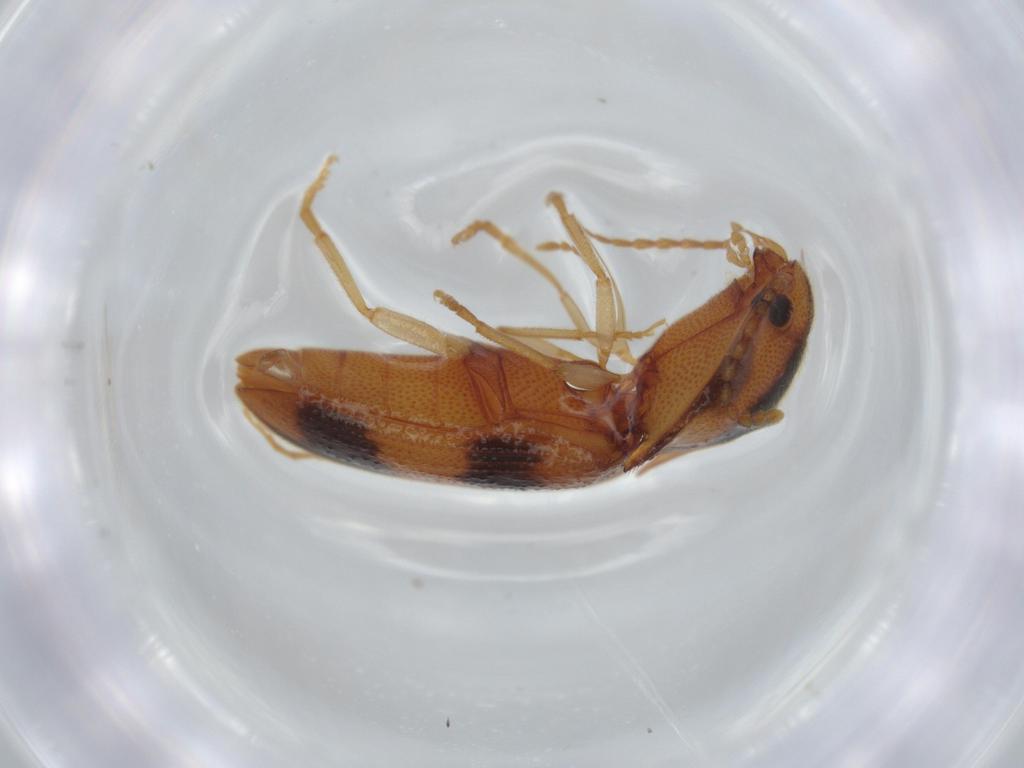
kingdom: Animalia
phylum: Arthropoda
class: Insecta
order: Coleoptera
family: Elateridae
